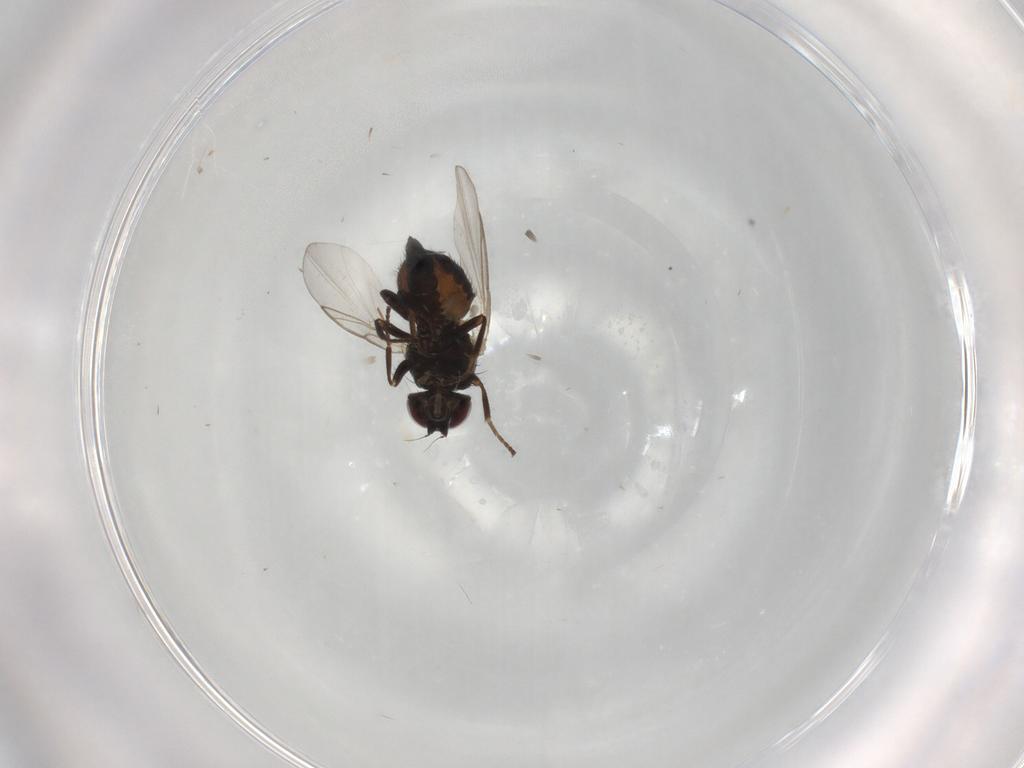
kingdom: Animalia
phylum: Arthropoda
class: Insecta
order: Diptera
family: Agromyzidae
